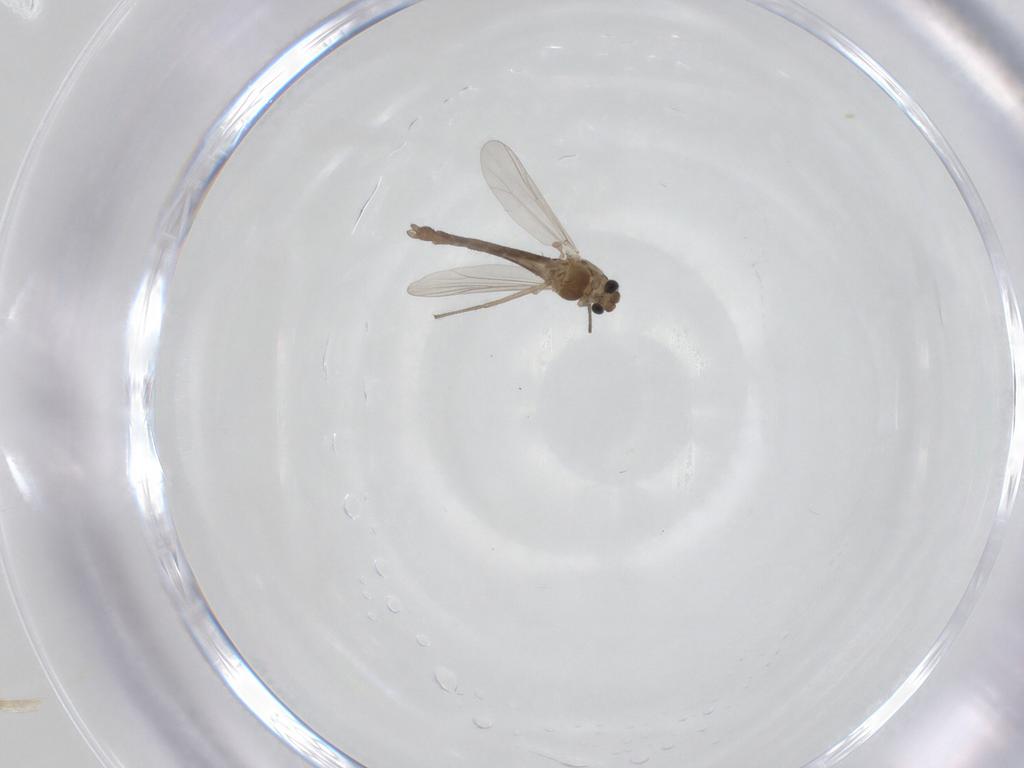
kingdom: Animalia
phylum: Arthropoda
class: Insecta
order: Diptera
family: Chironomidae
